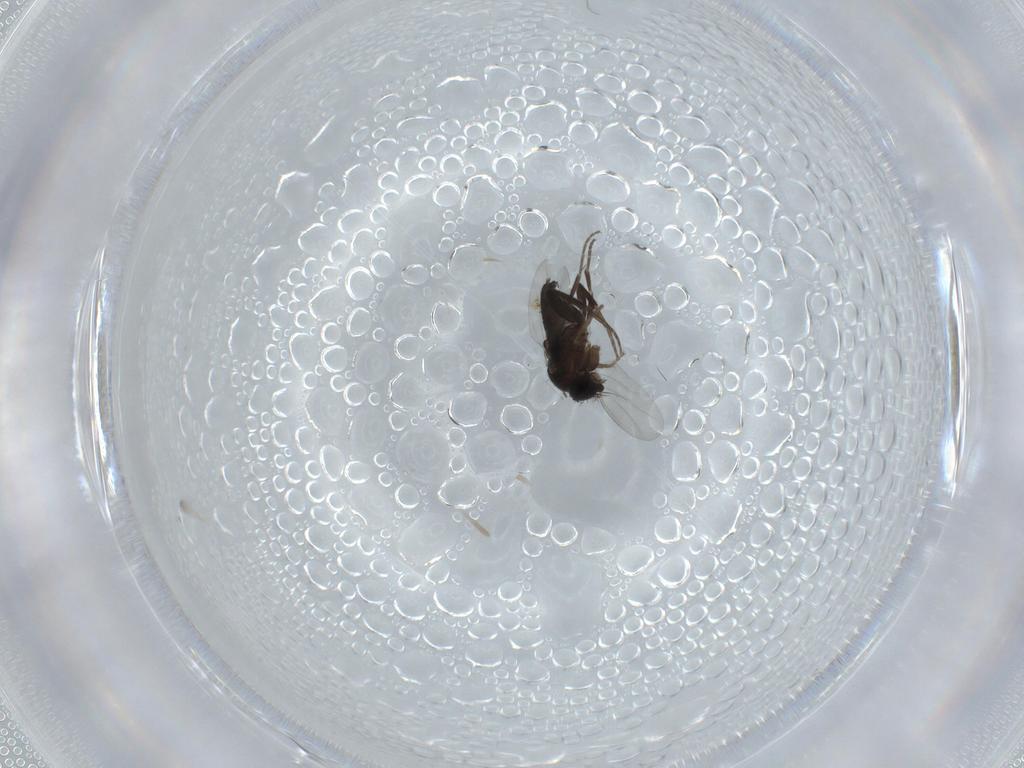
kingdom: Animalia
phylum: Arthropoda
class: Insecta
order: Diptera
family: Phoridae
